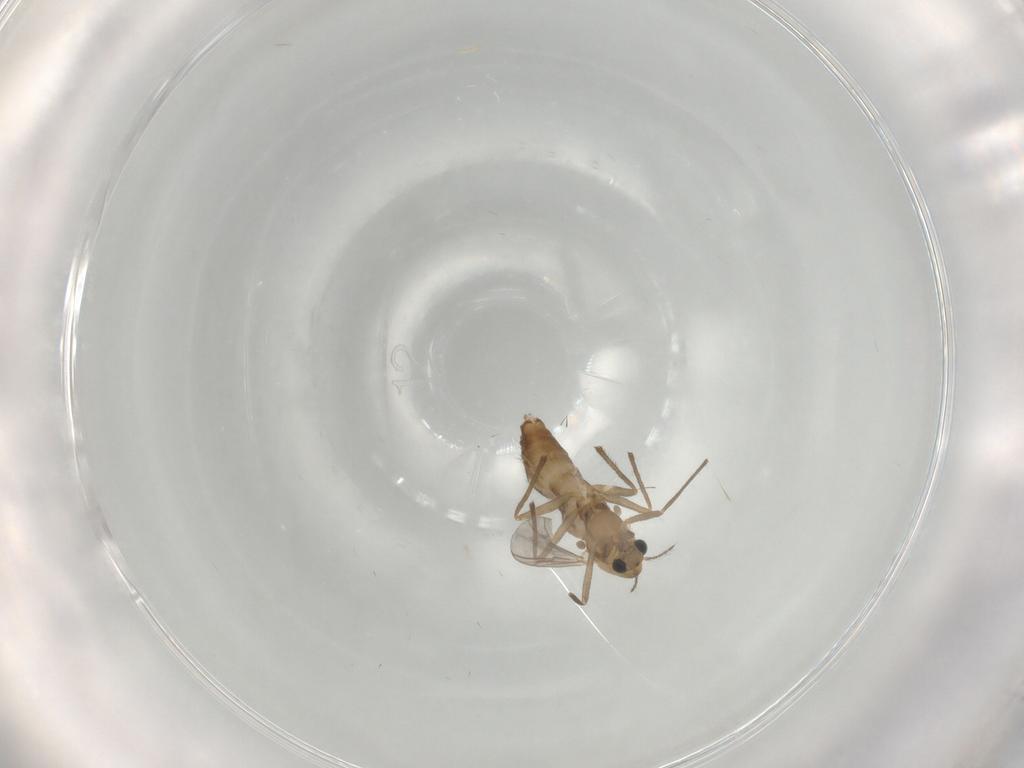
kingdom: Animalia
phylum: Arthropoda
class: Insecta
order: Diptera
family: Chironomidae
